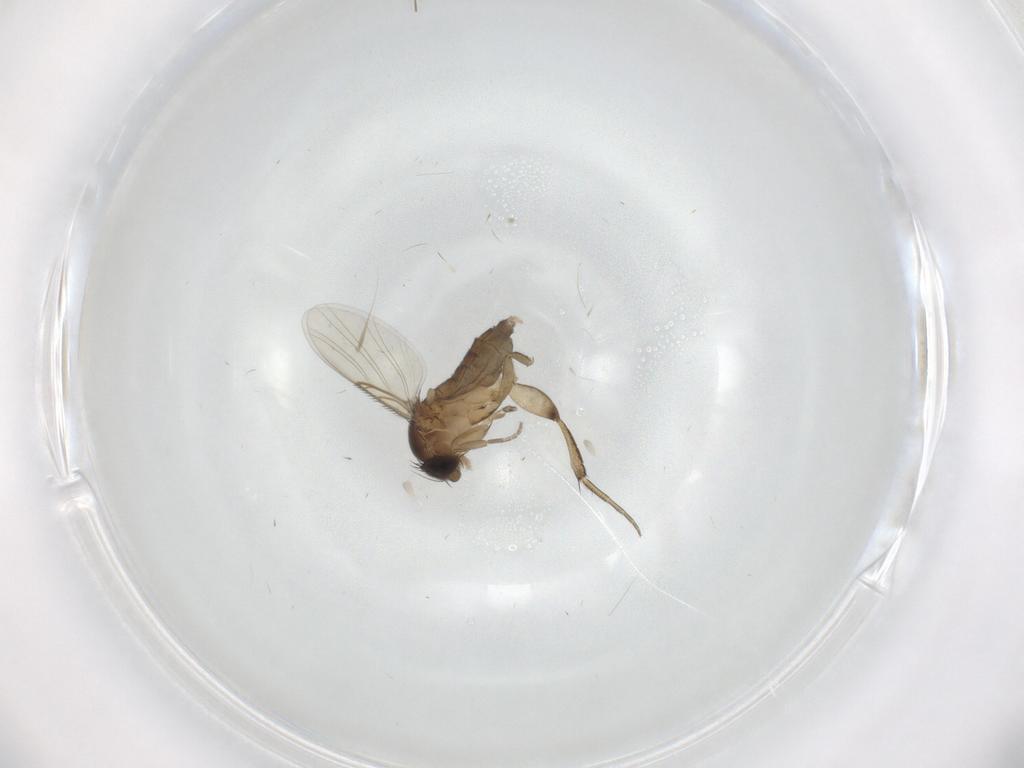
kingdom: Animalia
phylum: Arthropoda
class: Insecta
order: Diptera
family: Phoridae
